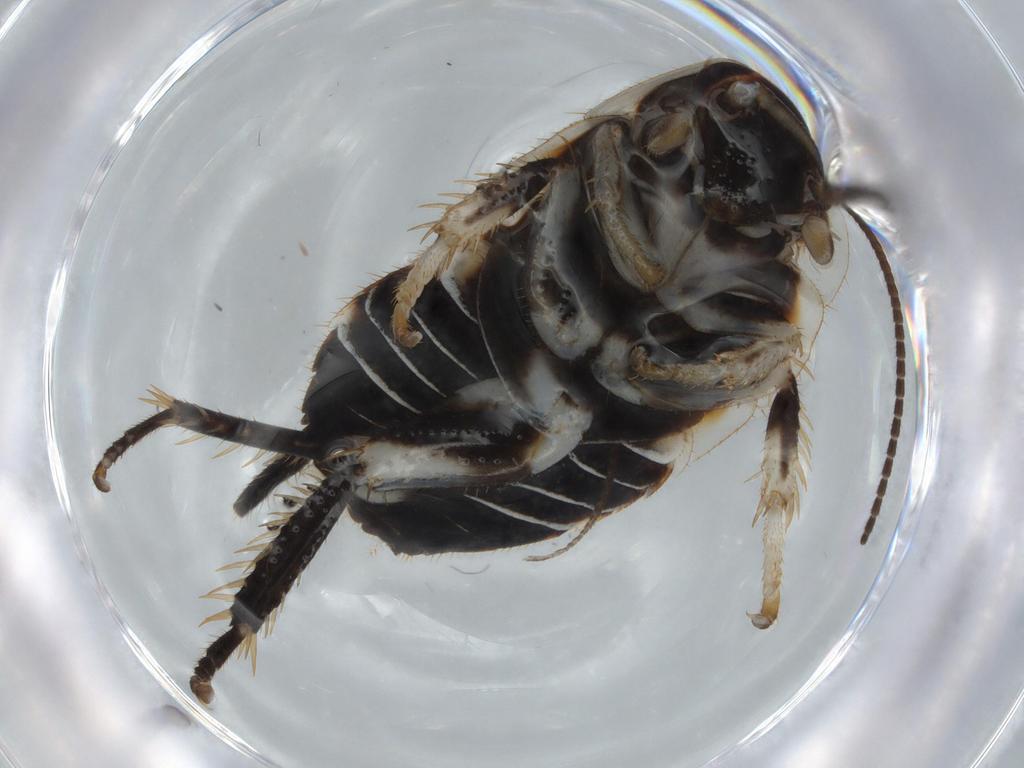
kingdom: Animalia
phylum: Arthropoda
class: Insecta
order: Blattodea
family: Ectobiidae
